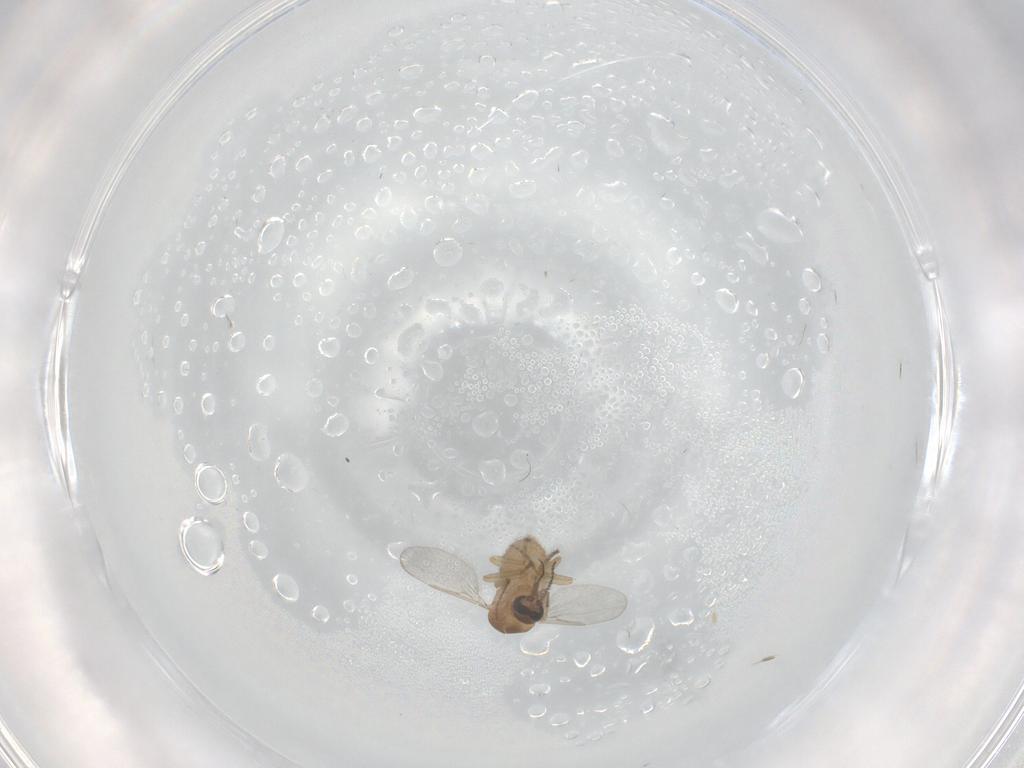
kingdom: Animalia
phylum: Arthropoda
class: Insecta
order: Diptera
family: Ceratopogonidae
